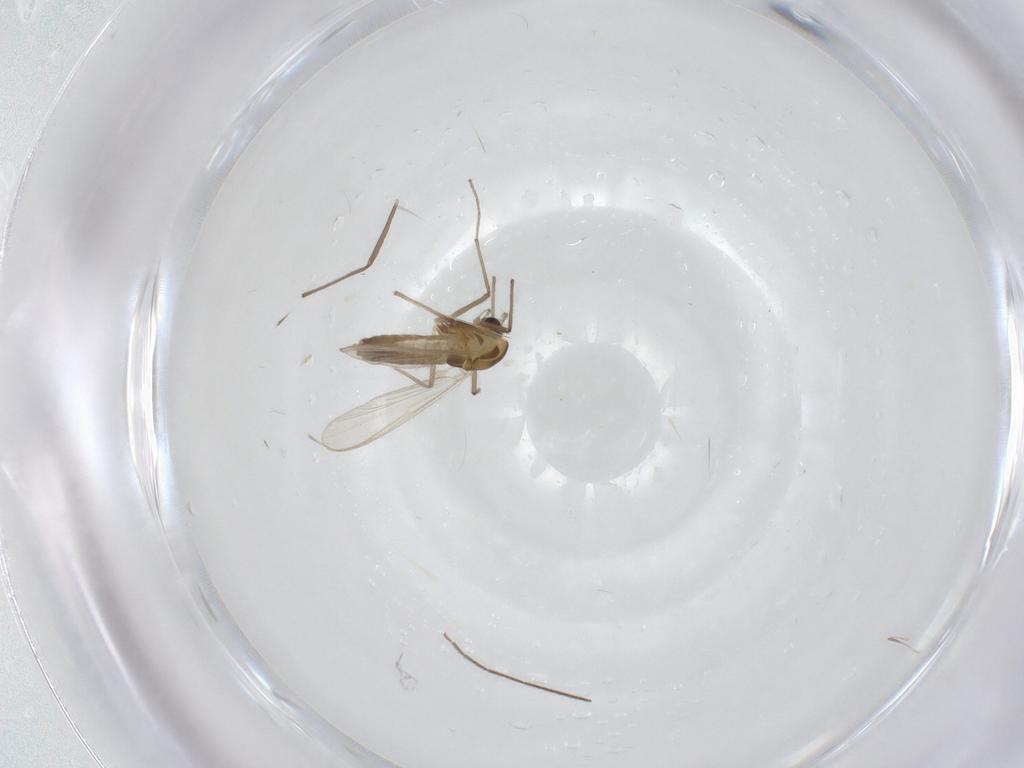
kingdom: Animalia
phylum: Arthropoda
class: Insecta
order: Diptera
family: Chironomidae
